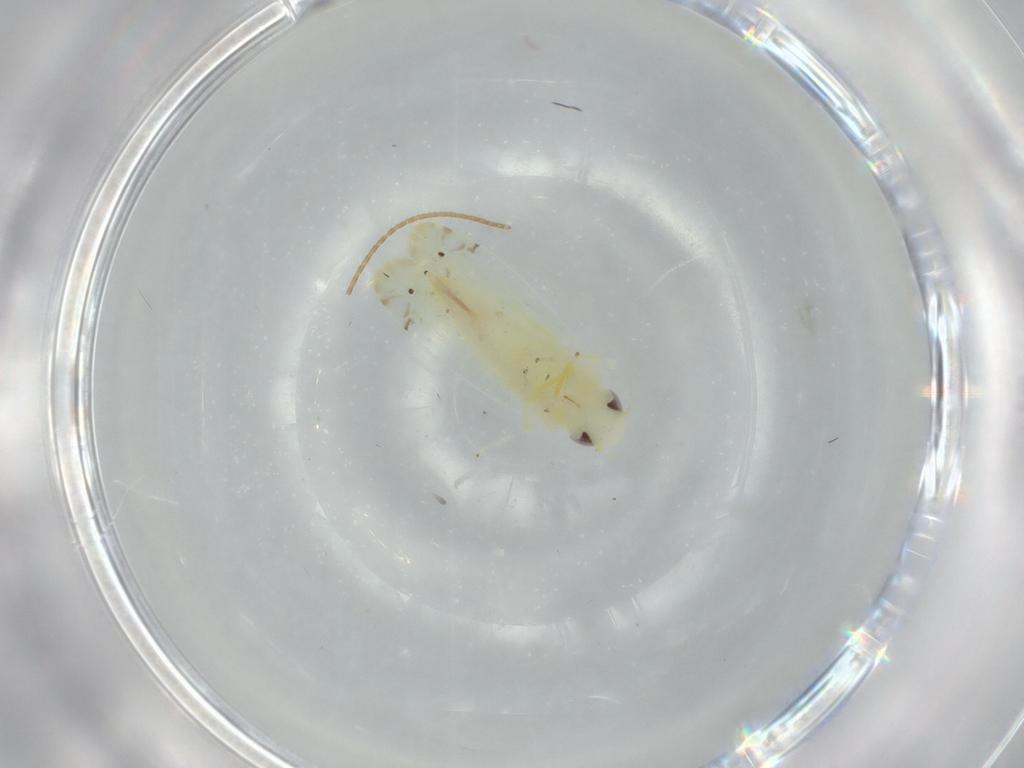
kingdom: Animalia
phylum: Arthropoda
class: Insecta
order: Hemiptera
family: Cicadellidae
